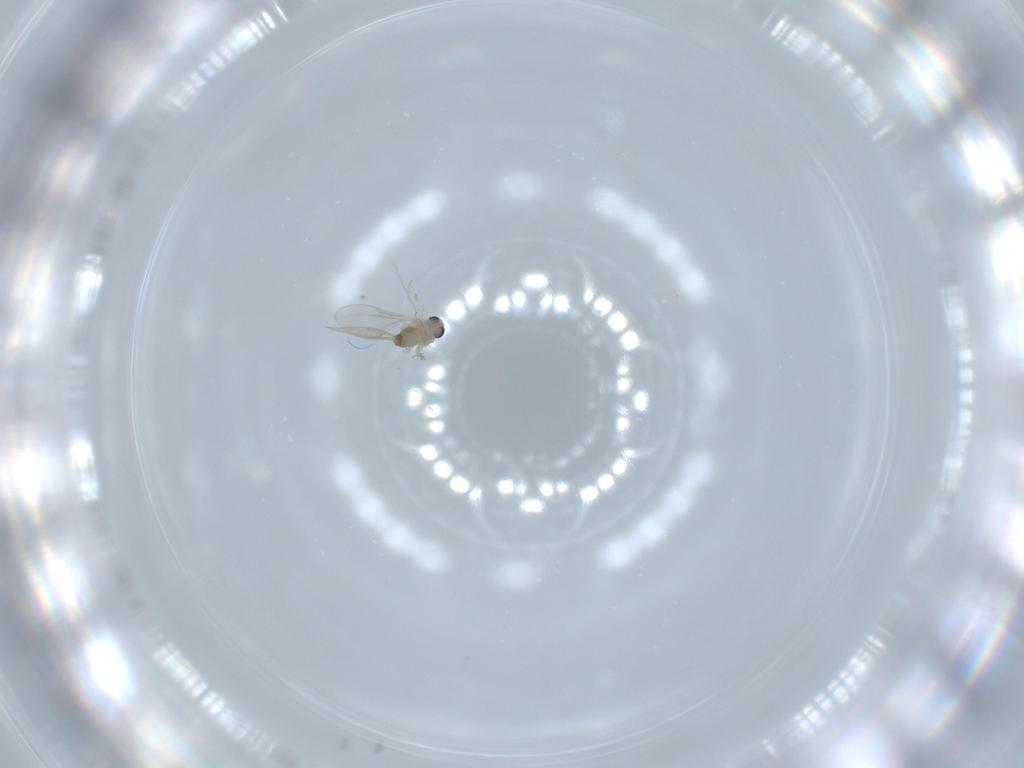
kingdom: Animalia
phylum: Arthropoda
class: Insecta
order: Diptera
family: Cecidomyiidae
